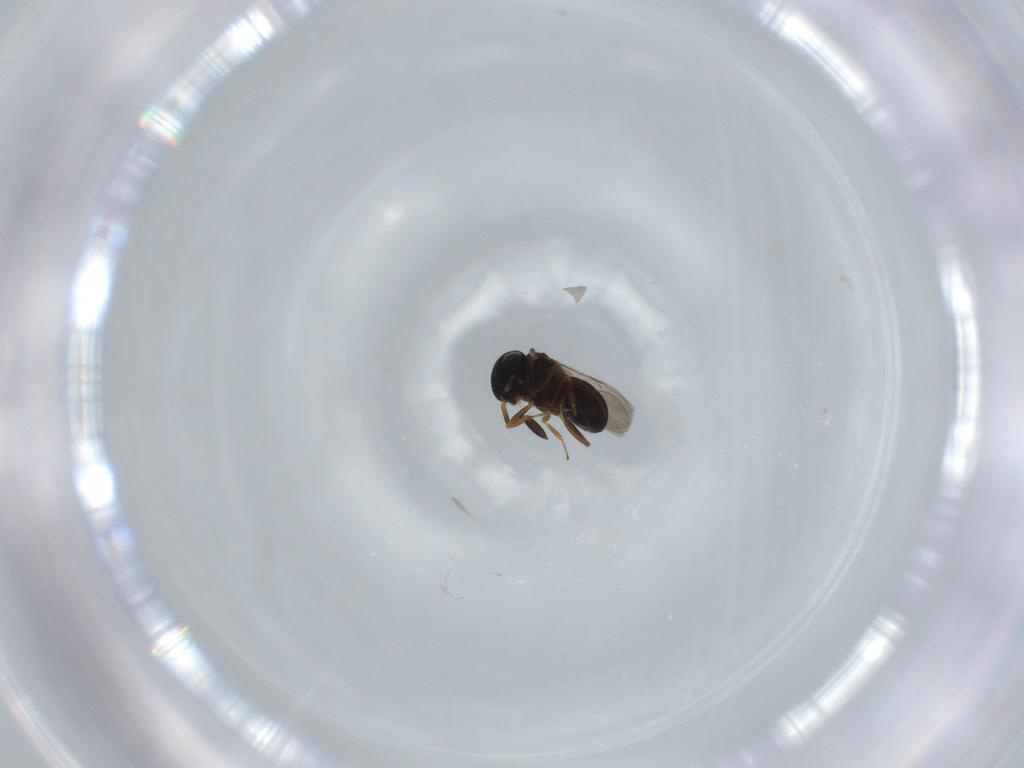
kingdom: Animalia
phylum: Arthropoda
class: Insecta
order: Coleoptera
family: Curculionidae
